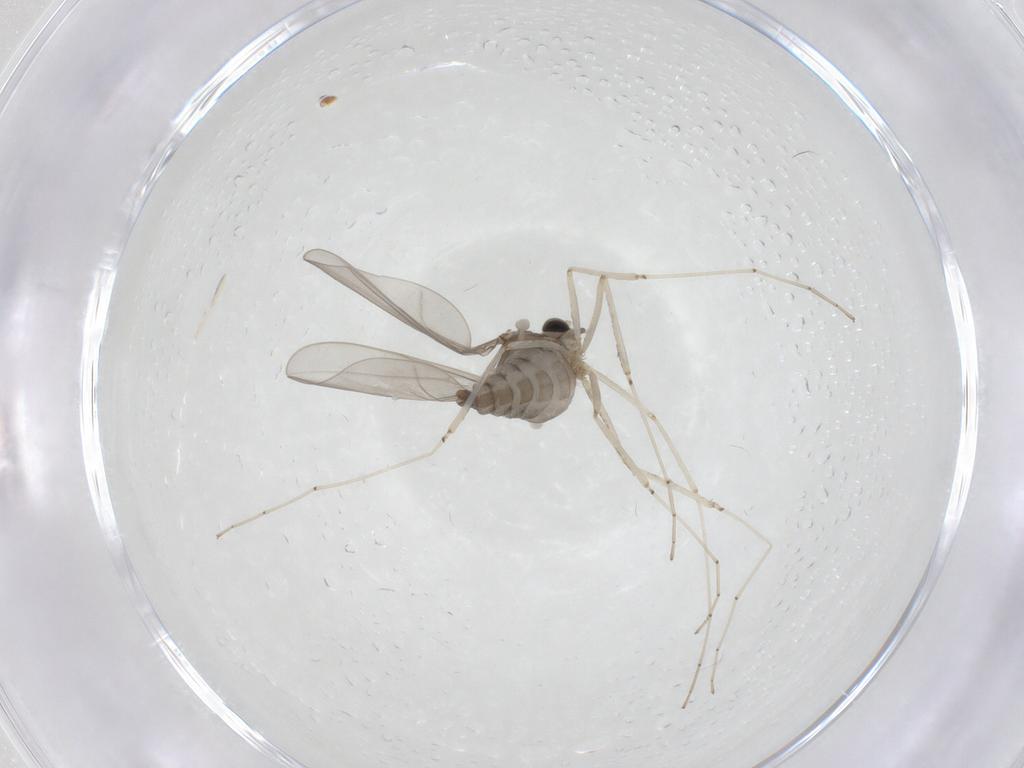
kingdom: Animalia
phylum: Arthropoda
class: Insecta
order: Diptera
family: Cecidomyiidae
